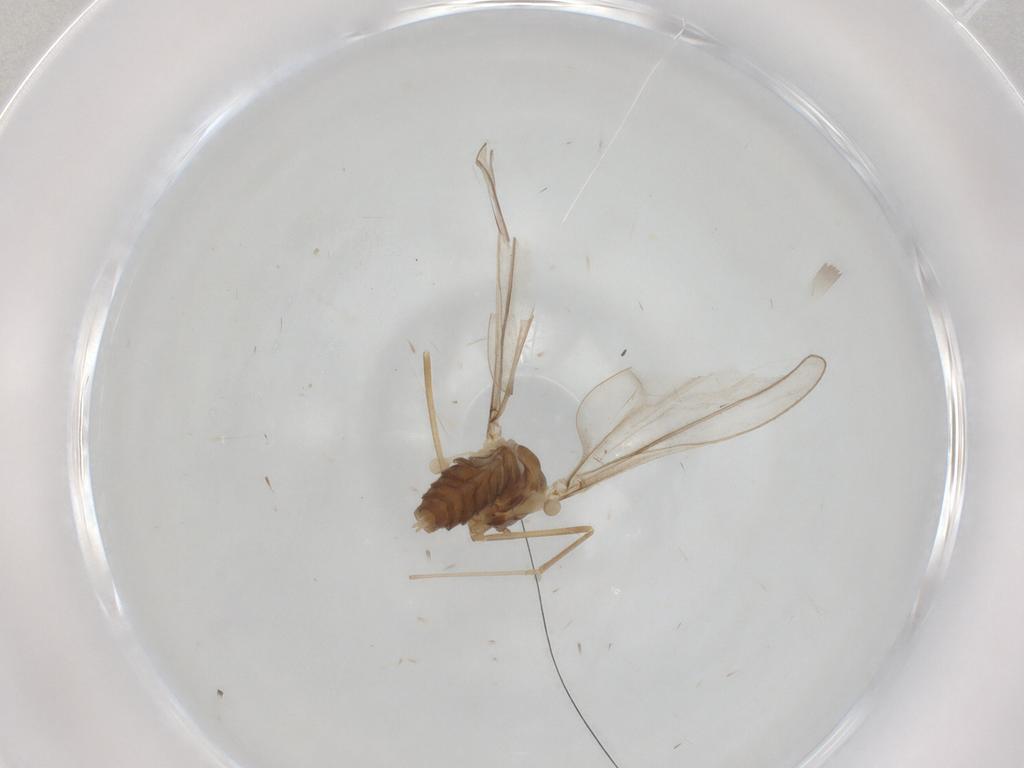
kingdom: Animalia
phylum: Arthropoda
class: Insecta
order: Diptera
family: Cecidomyiidae
